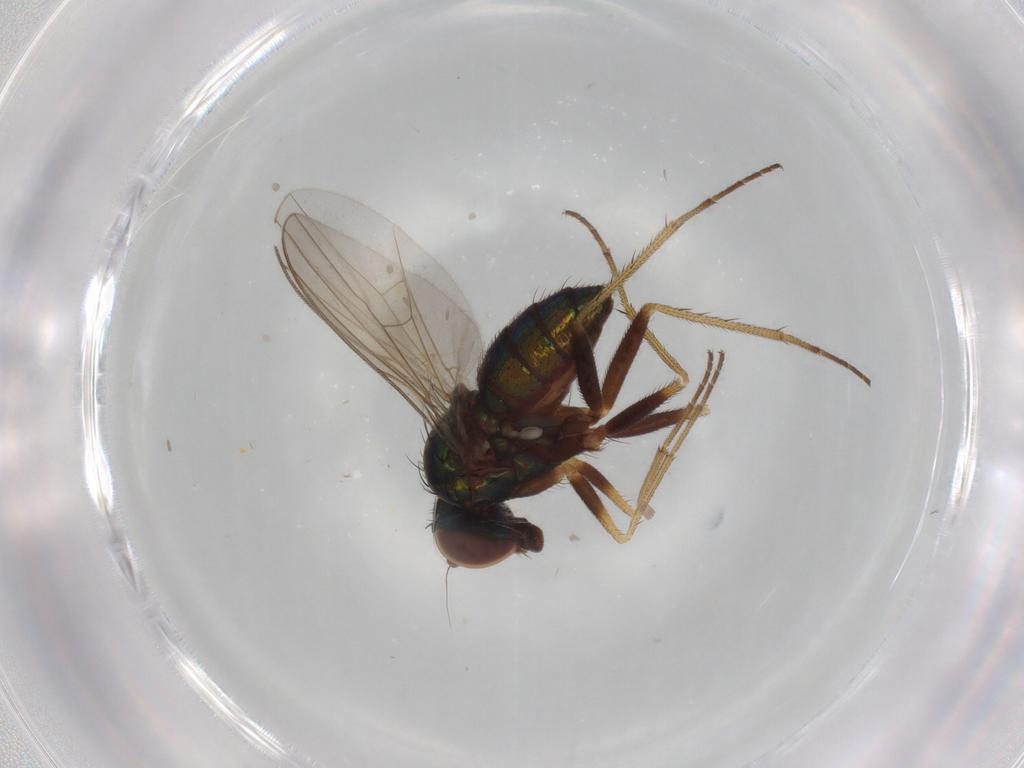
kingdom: Animalia
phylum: Arthropoda
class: Insecta
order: Diptera
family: Dolichopodidae
